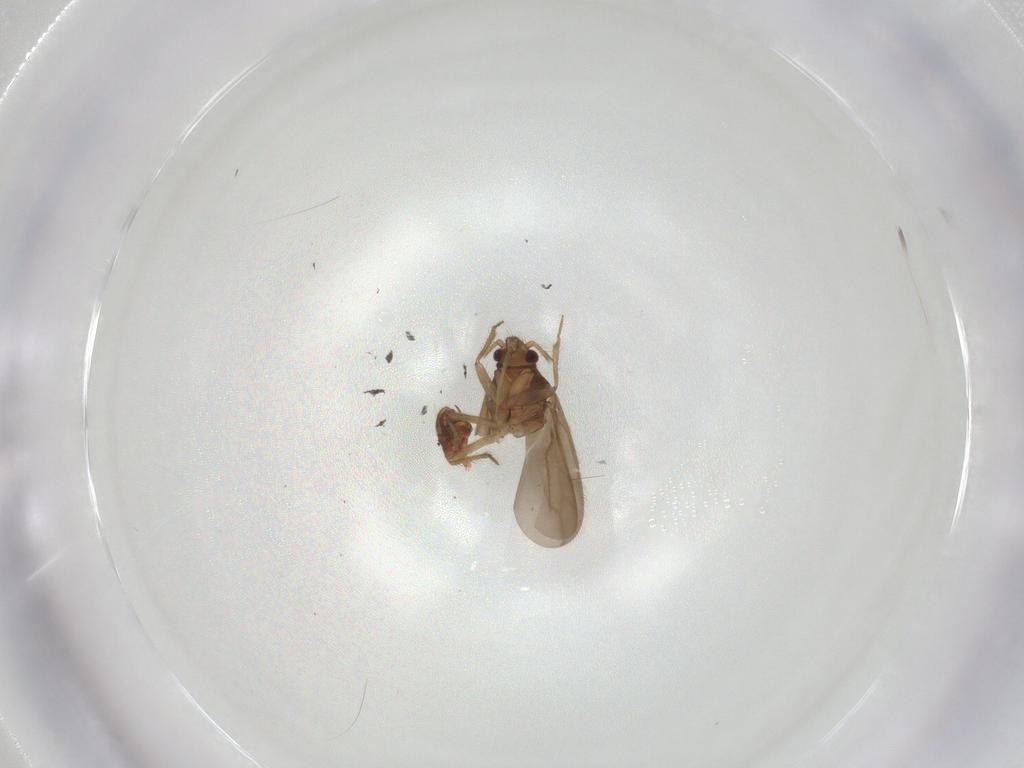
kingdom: Animalia
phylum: Arthropoda
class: Insecta
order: Hemiptera
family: Ceratocombidae
